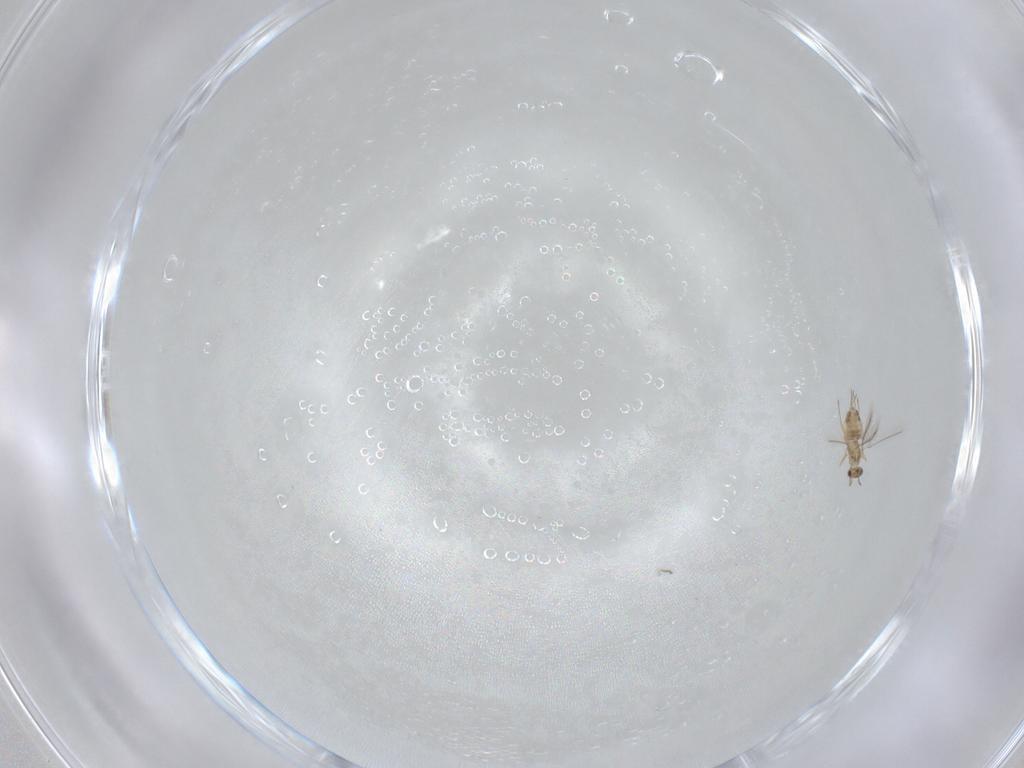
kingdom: Animalia
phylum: Arthropoda
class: Insecta
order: Hymenoptera
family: Mymaridae
